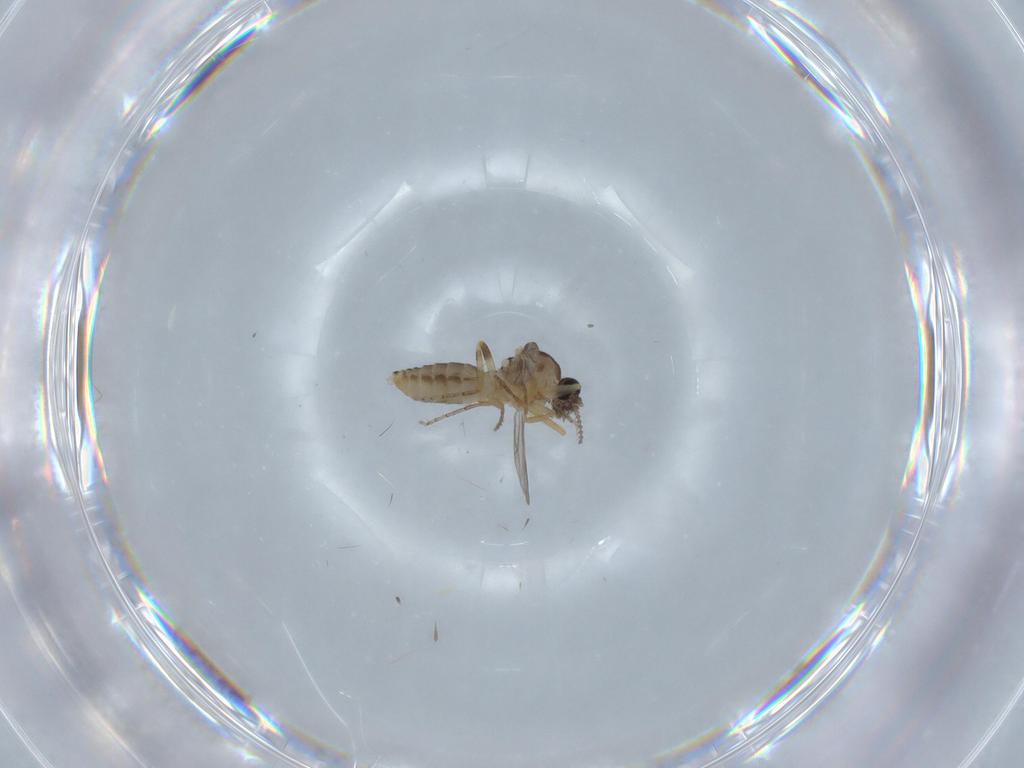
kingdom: Animalia
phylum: Arthropoda
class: Insecta
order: Diptera
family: Ceratopogonidae
